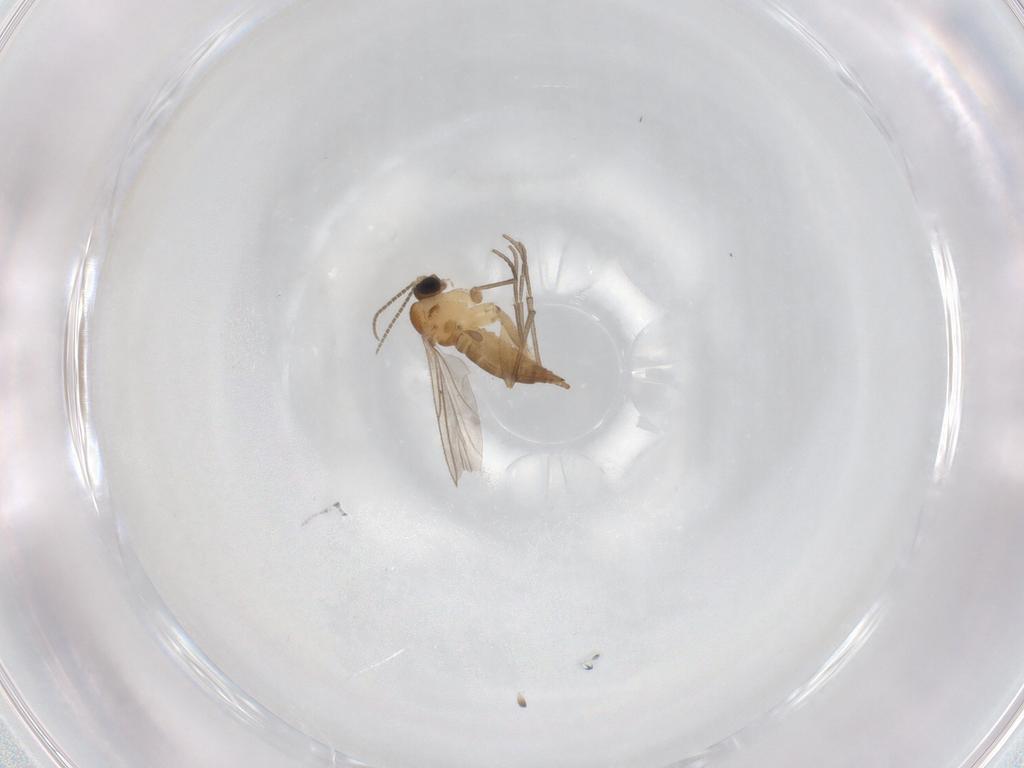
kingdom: Animalia
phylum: Arthropoda
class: Insecta
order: Diptera
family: Sciaridae
